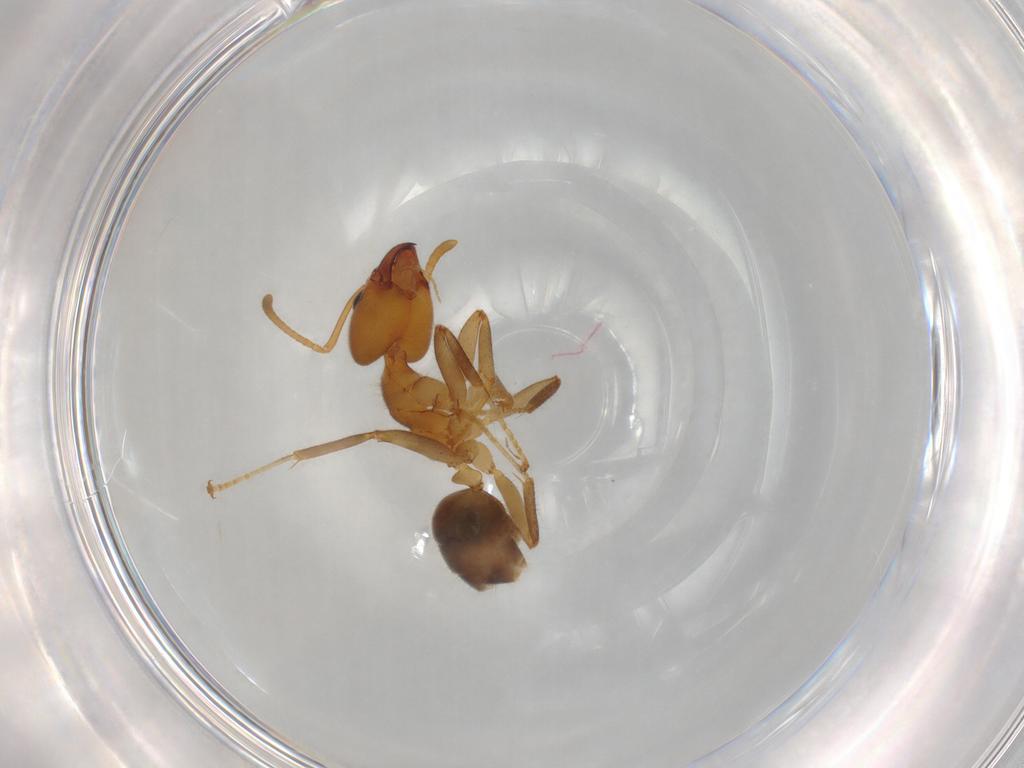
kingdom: Animalia
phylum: Arthropoda
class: Insecta
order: Hymenoptera
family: Formicidae
